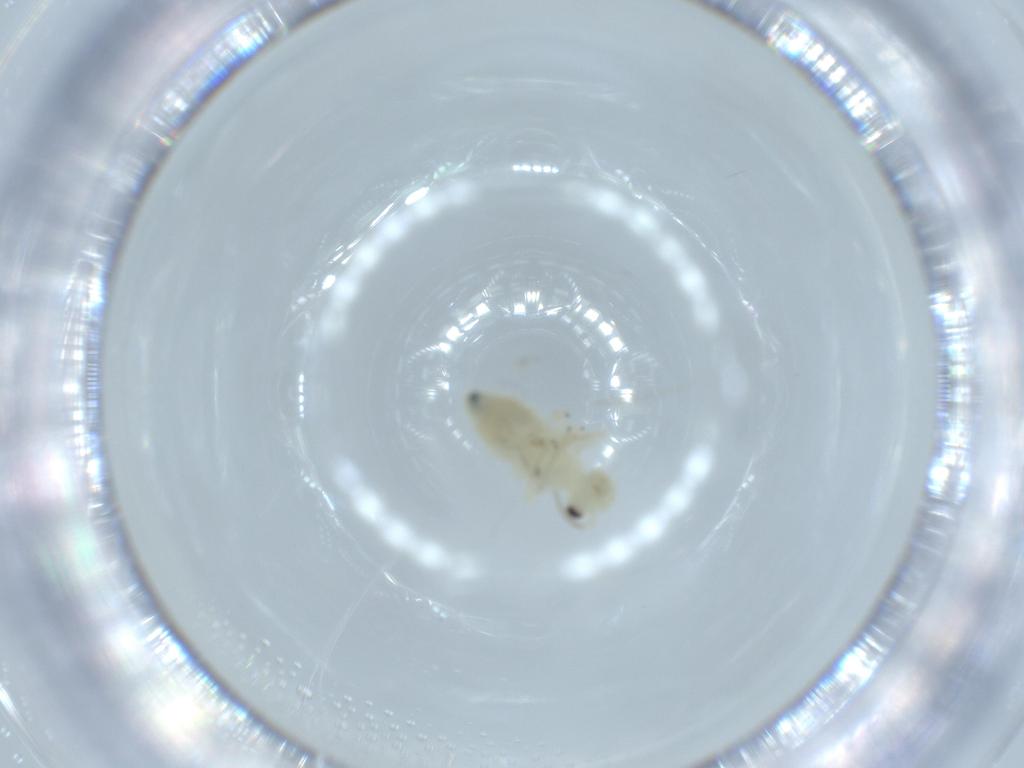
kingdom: Animalia
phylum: Arthropoda
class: Insecta
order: Psocodea
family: Caeciliusidae
